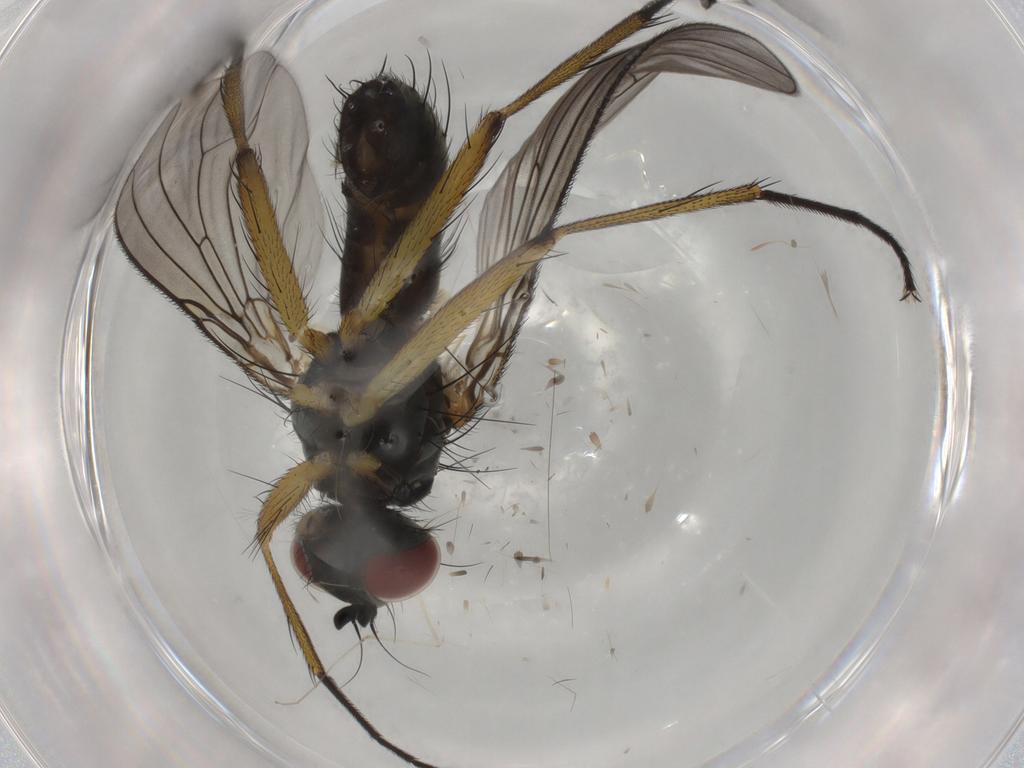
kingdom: Animalia
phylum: Arthropoda
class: Insecta
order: Diptera
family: Muscidae
